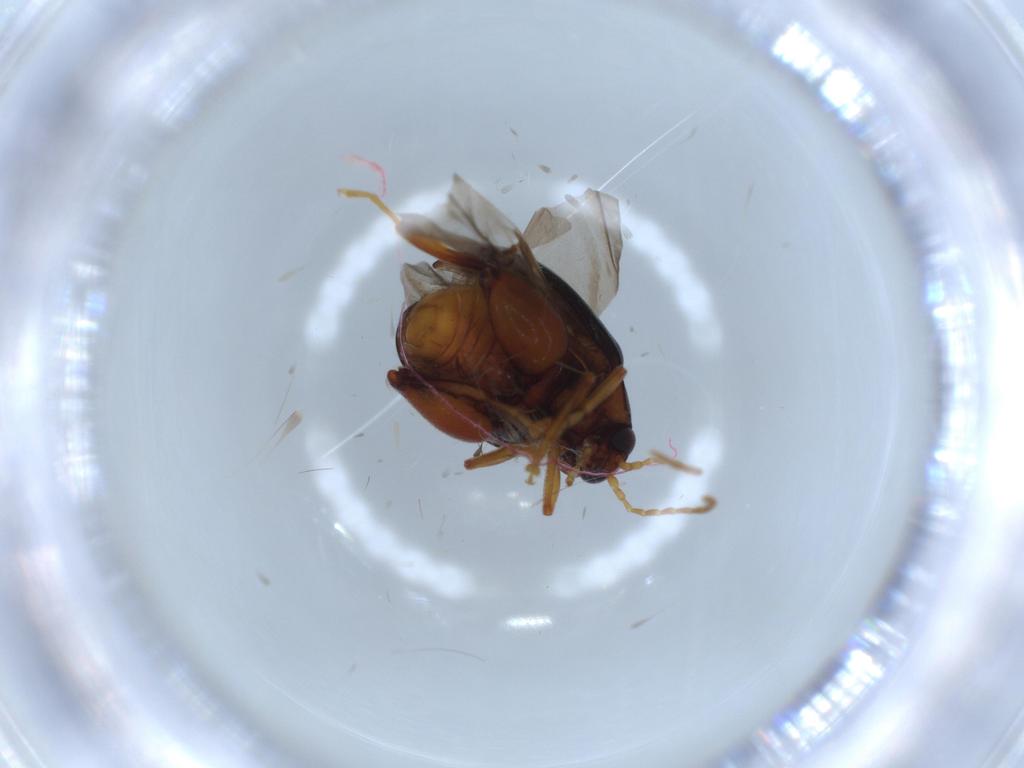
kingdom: Animalia
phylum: Arthropoda
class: Insecta
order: Coleoptera
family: Chrysomelidae
